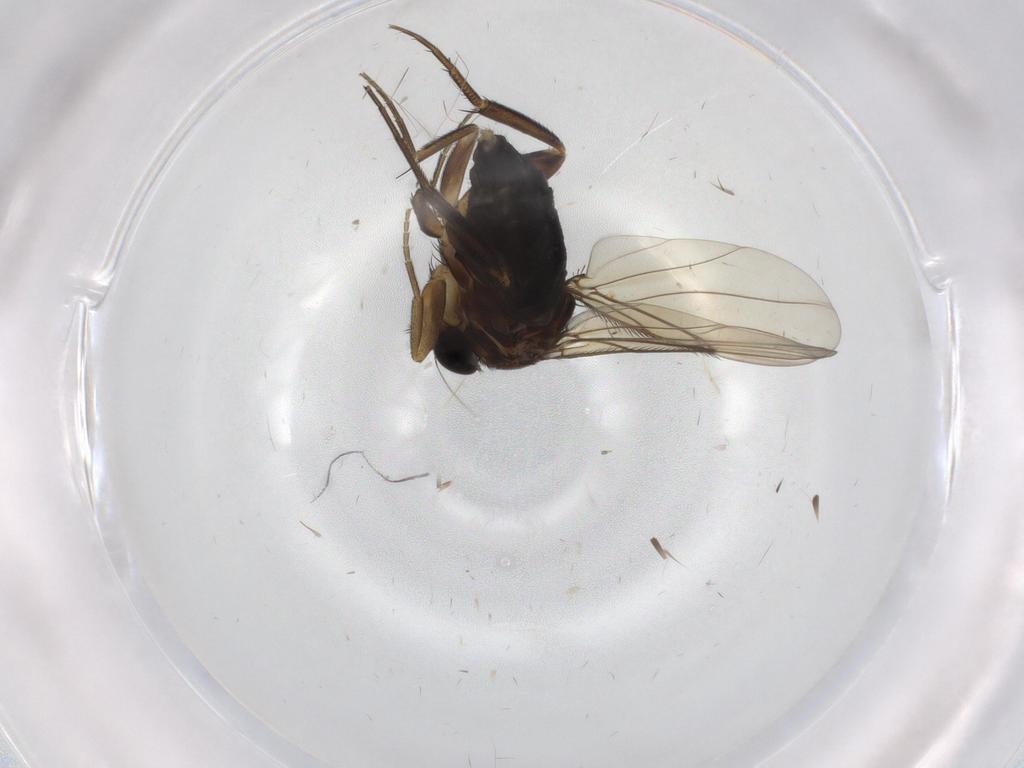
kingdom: Animalia
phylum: Arthropoda
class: Insecta
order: Diptera
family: Phoridae
